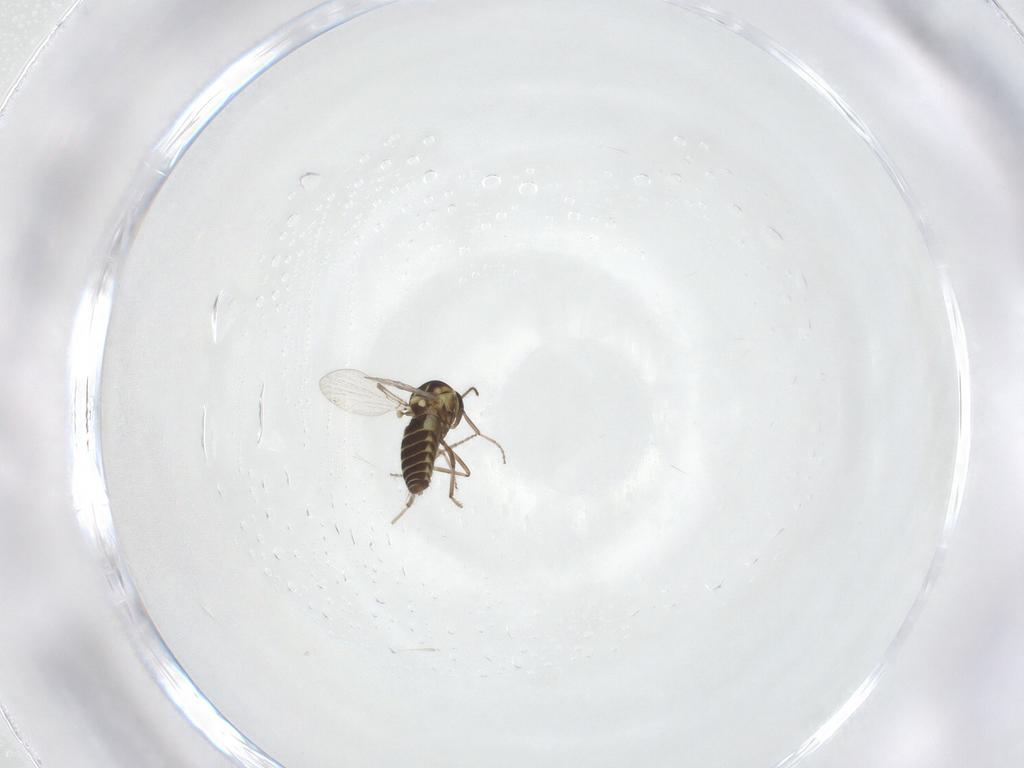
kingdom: Animalia
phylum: Arthropoda
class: Insecta
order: Diptera
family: Ceratopogonidae
